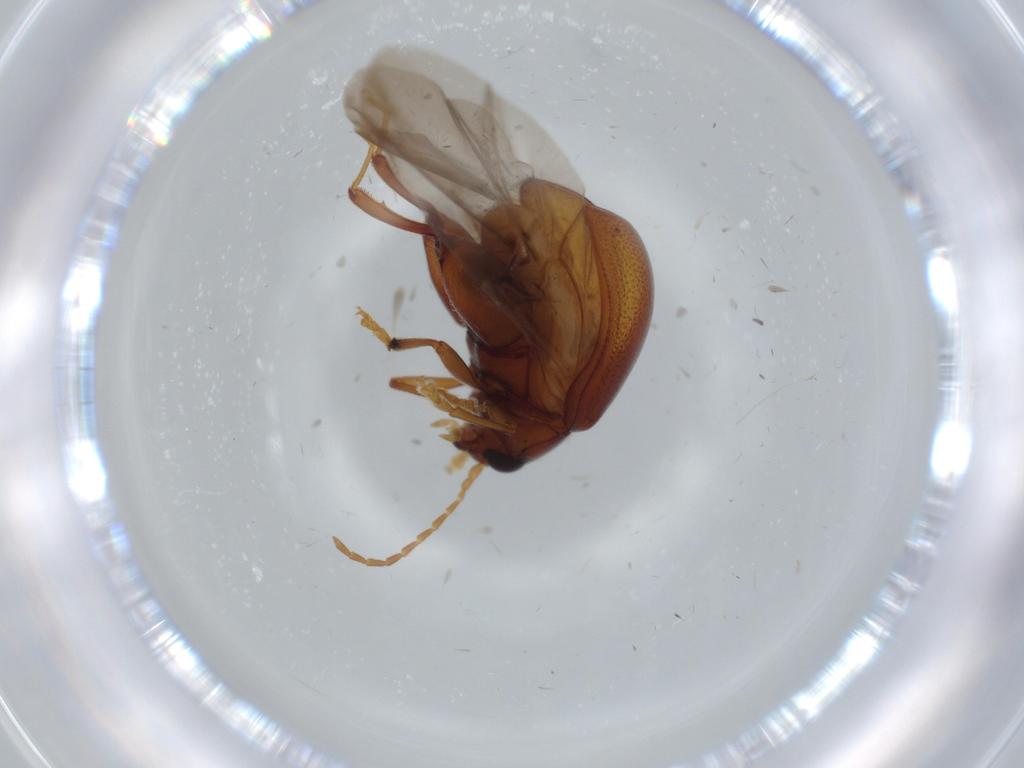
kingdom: Animalia
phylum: Arthropoda
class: Insecta
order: Coleoptera
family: Chrysomelidae
